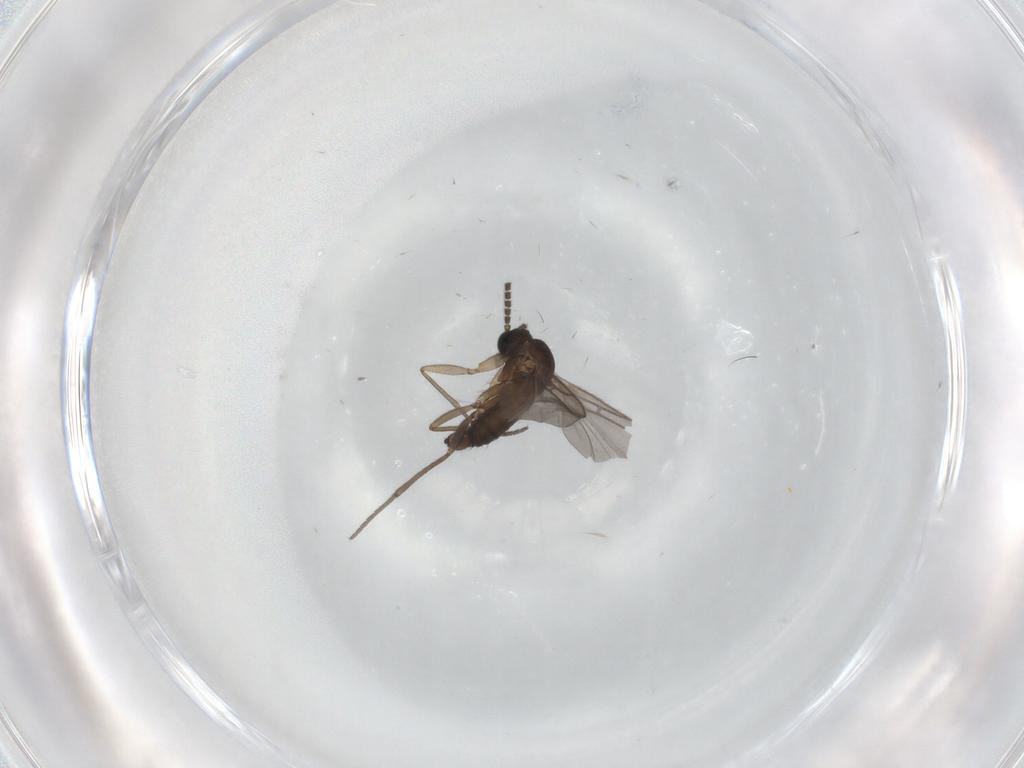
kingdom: Animalia
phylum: Arthropoda
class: Insecta
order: Diptera
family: Sciaridae
